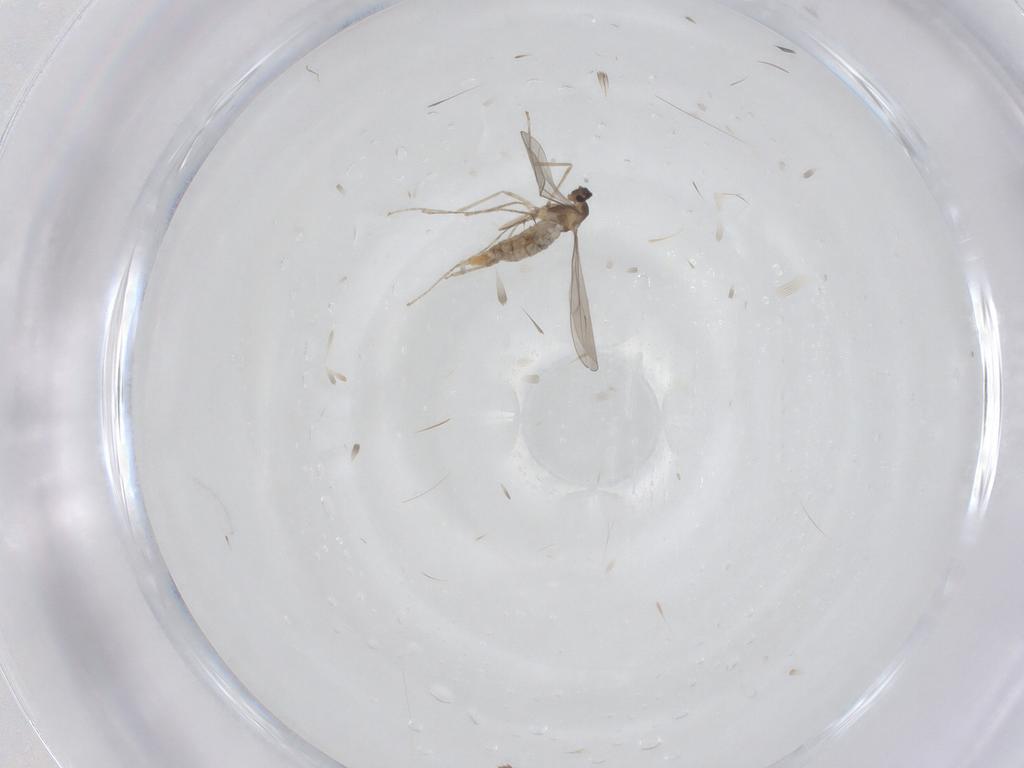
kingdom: Animalia
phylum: Arthropoda
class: Insecta
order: Diptera
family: Cecidomyiidae
